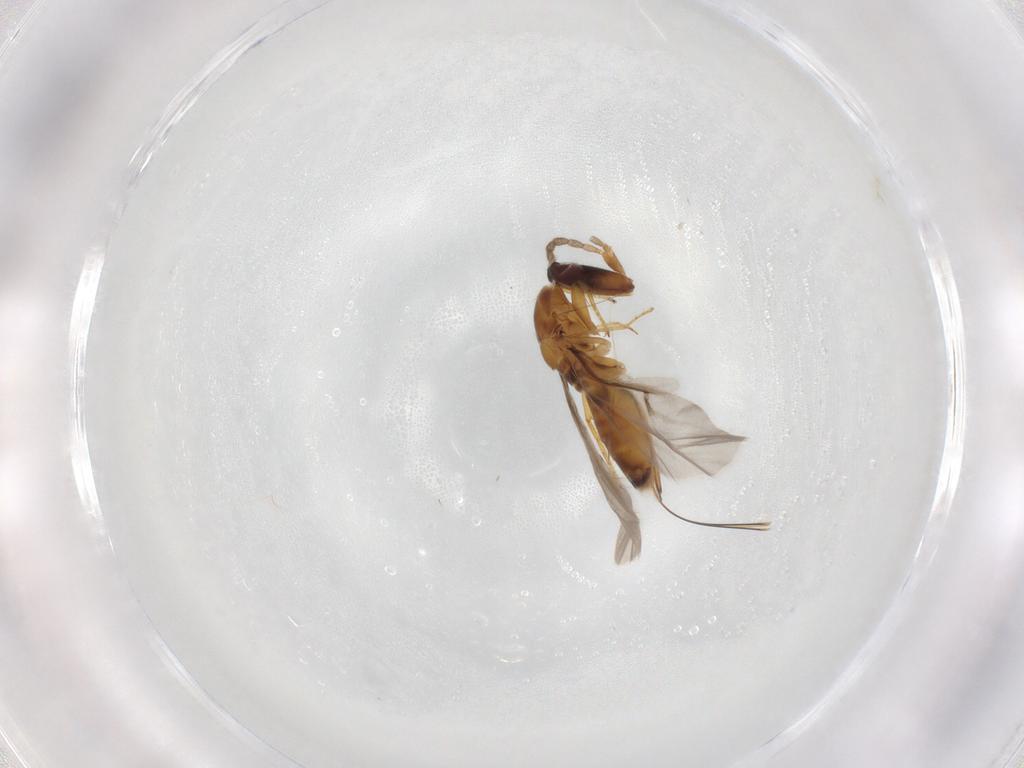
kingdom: Animalia
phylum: Arthropoda
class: Insecta
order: Hymenoptera
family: Agaonidae
